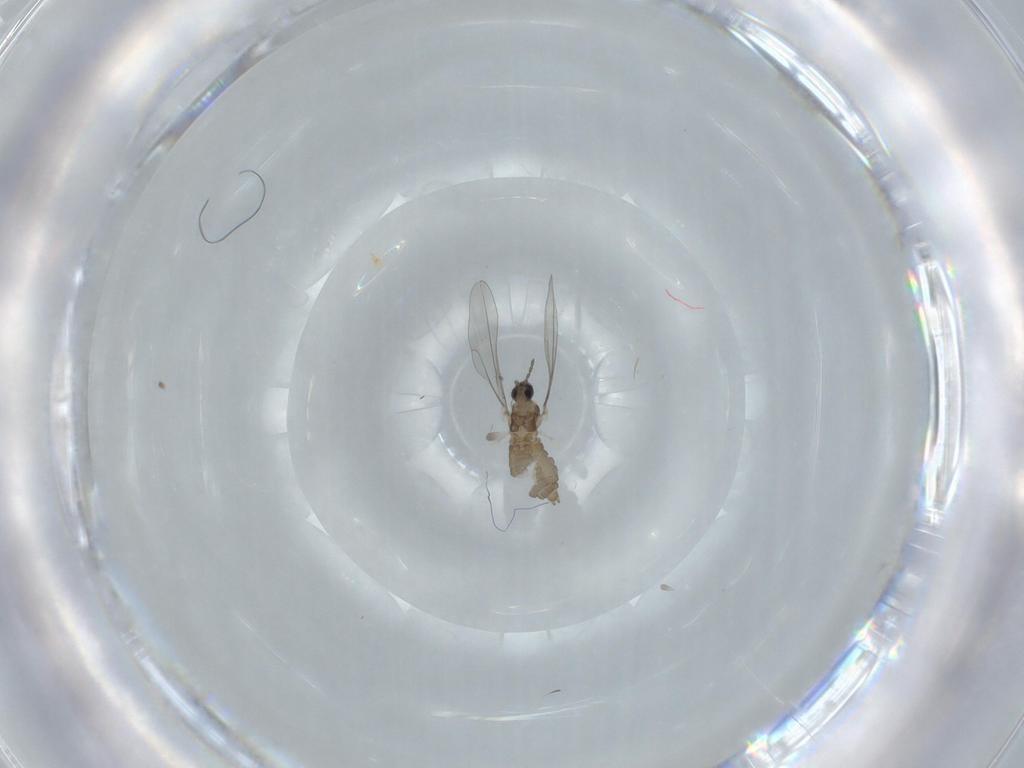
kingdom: Animalia
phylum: Arthropoda
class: Insecta
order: Diptera
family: Cecidomyiidae
